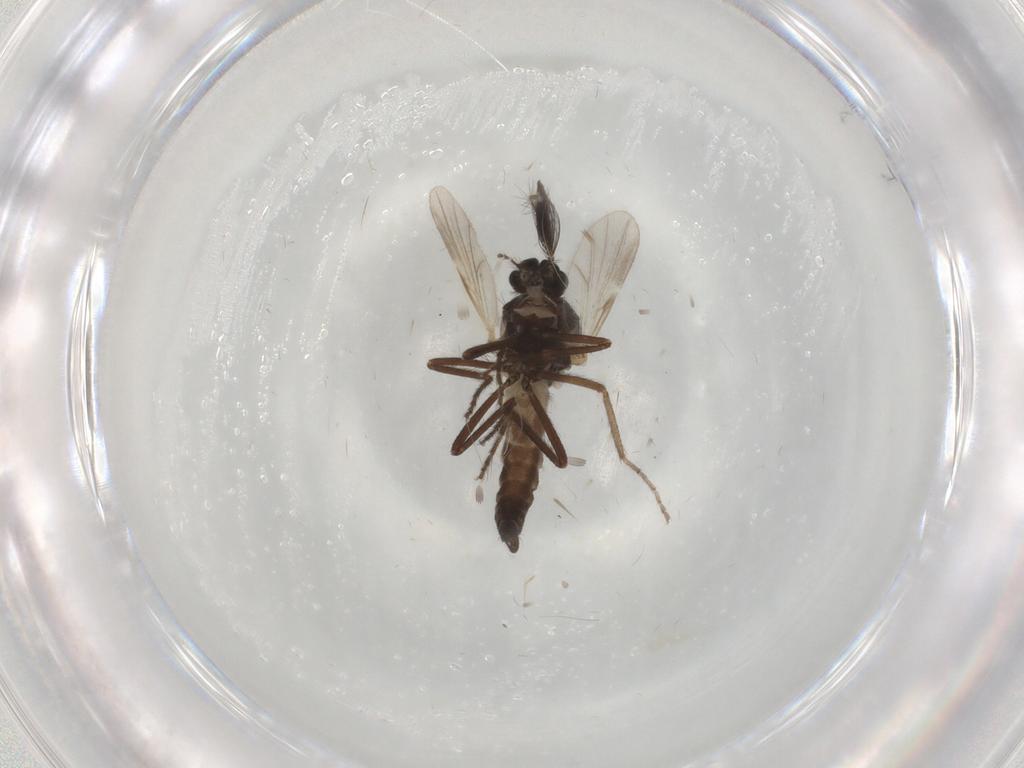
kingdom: Animalia
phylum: Arthropoda
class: Insecta
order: Diptera
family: Ceratopogonidae
